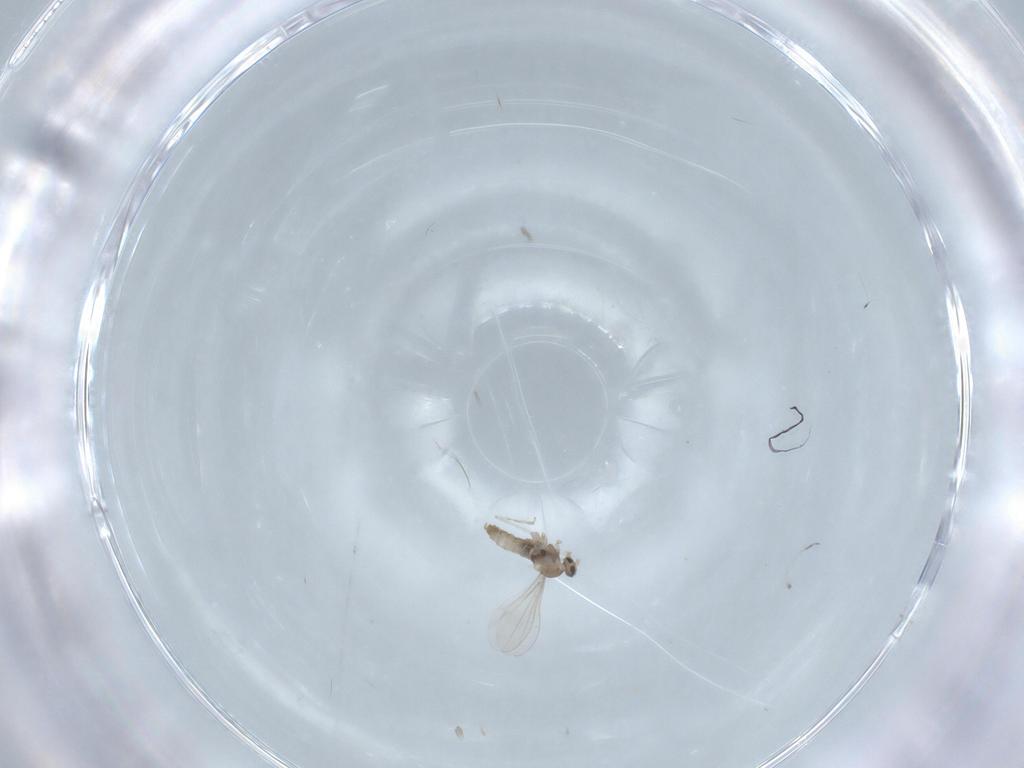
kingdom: Animalia
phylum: Arthropoda
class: Insecta
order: Diptera
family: Cecidomyiidae
